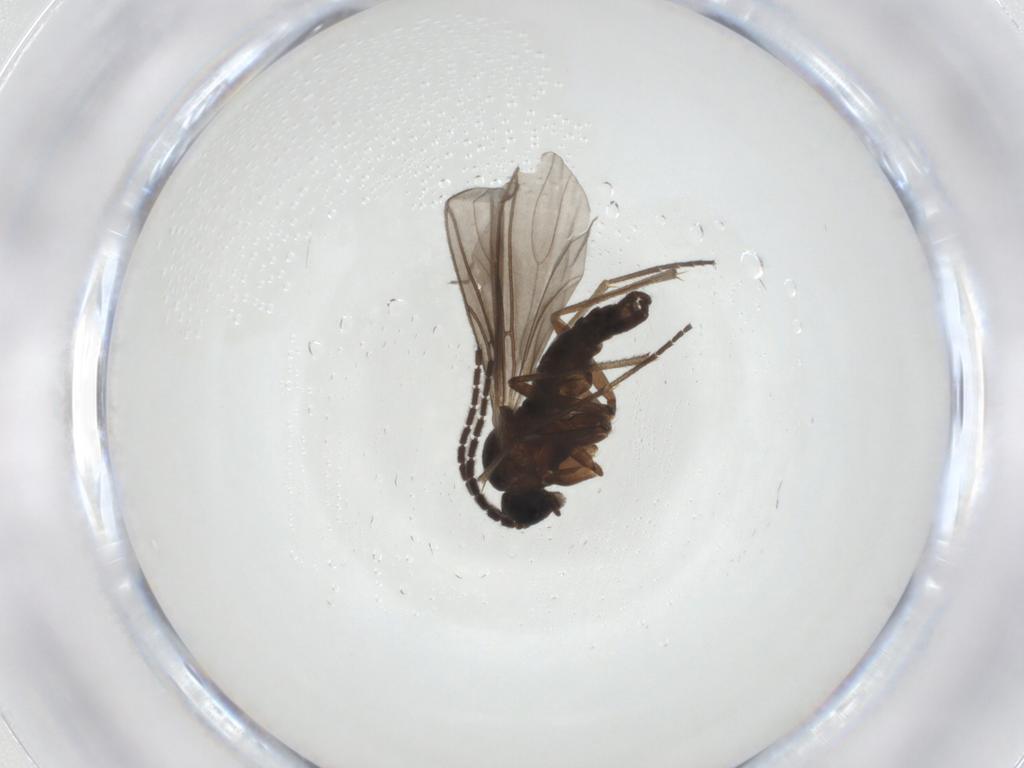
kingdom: Animalia
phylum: Arthropoda
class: Insecta
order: Diptera
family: Sciaridae
